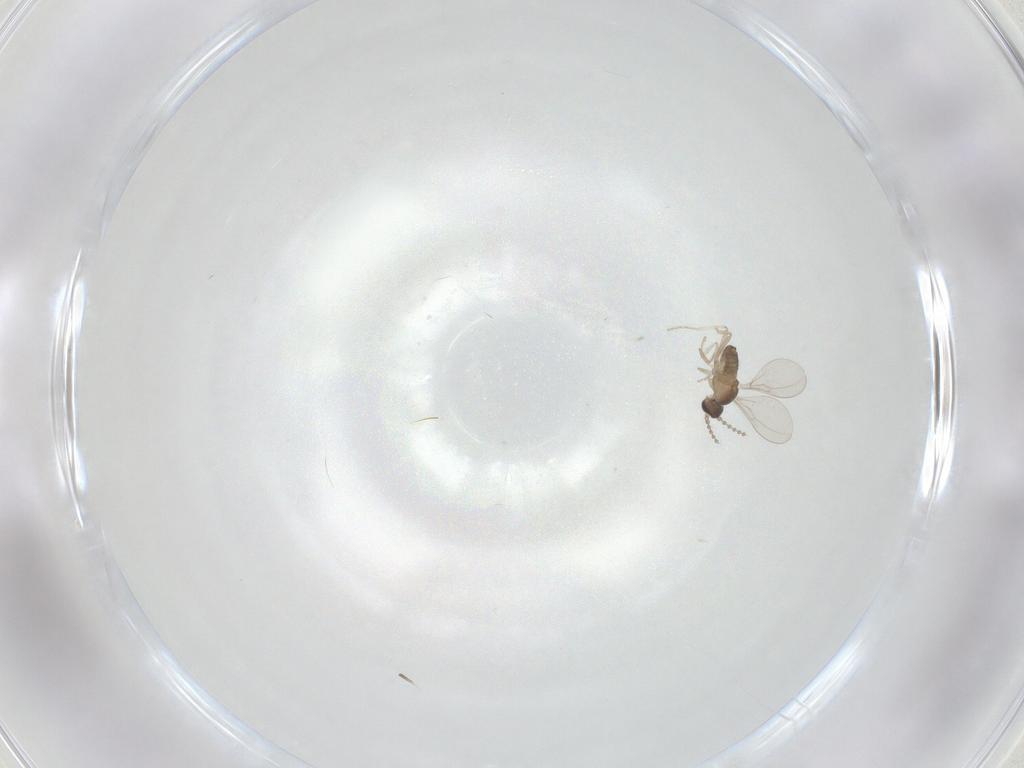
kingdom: Animalia
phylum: Arthropoda
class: Insecta
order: Diptera
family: Cecidomyiidae
